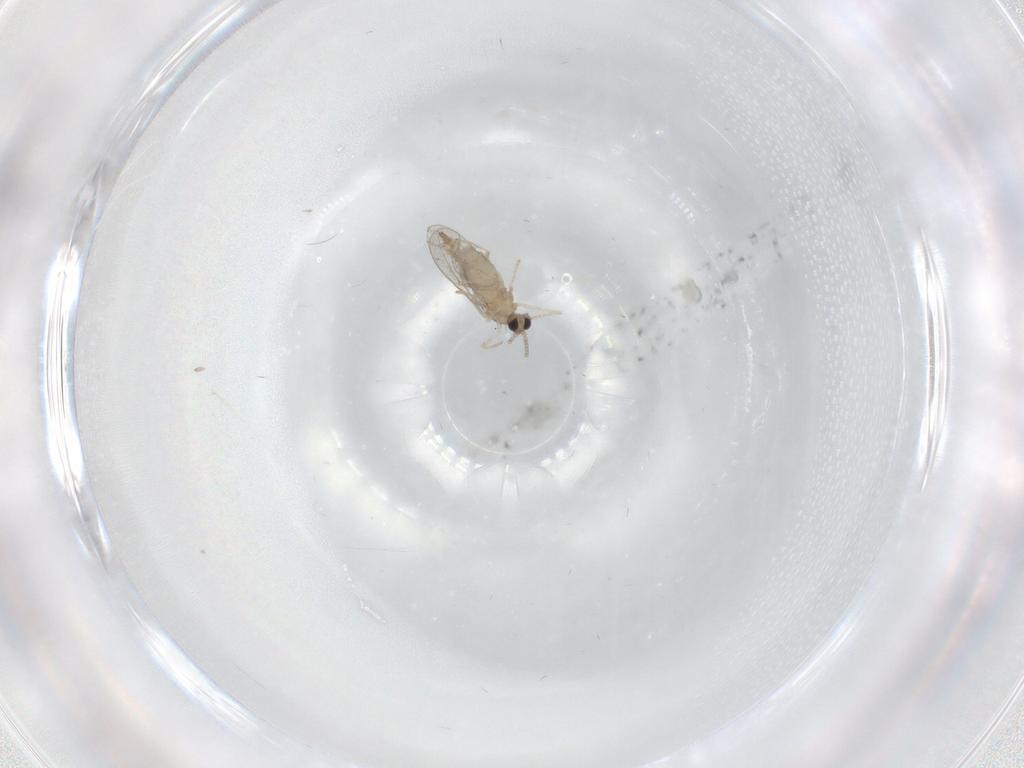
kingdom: Animalia
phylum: Arthropoda
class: Insecta
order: Diptera
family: Cecidomyiidae
